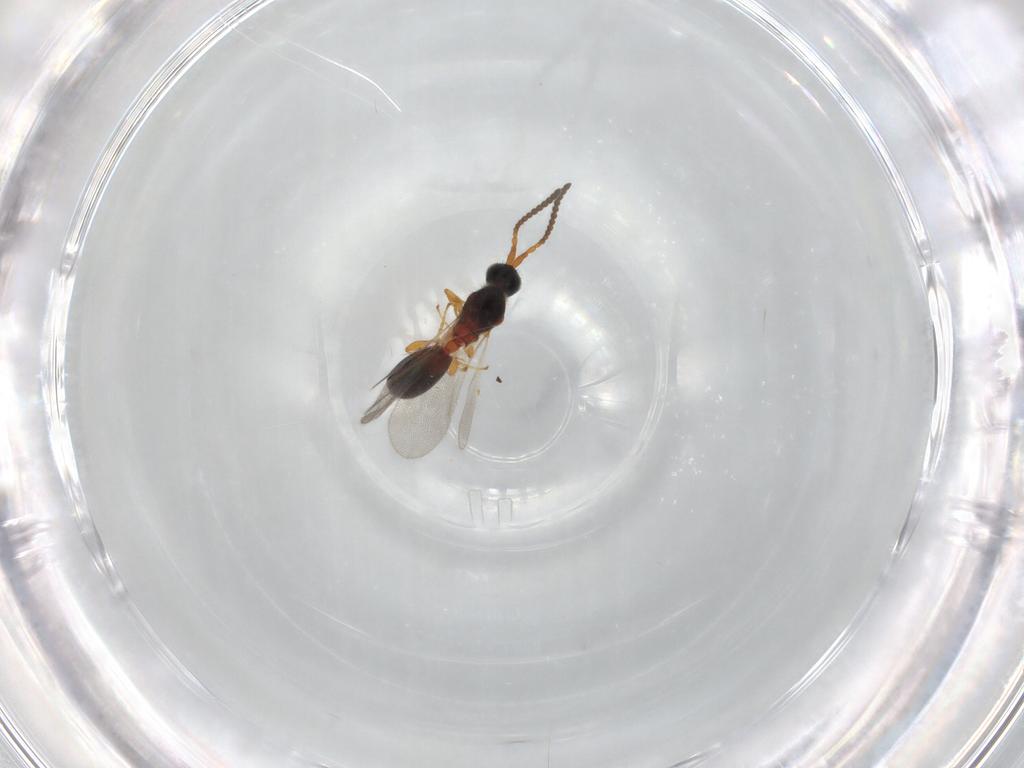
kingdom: Animalia
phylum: Arthropoda
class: Insecta
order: Hymenoptera
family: Diapriidae
